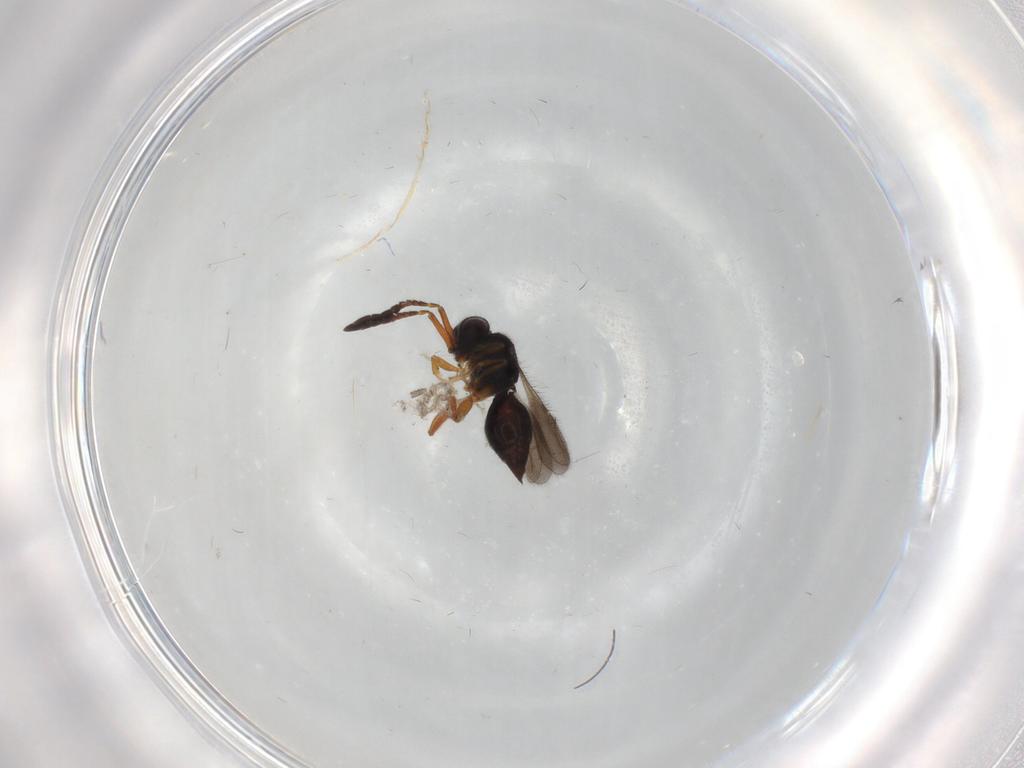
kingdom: Animalia
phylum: Arthropoda
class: Insecta
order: Hymenoptera
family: Ceraphronidae
